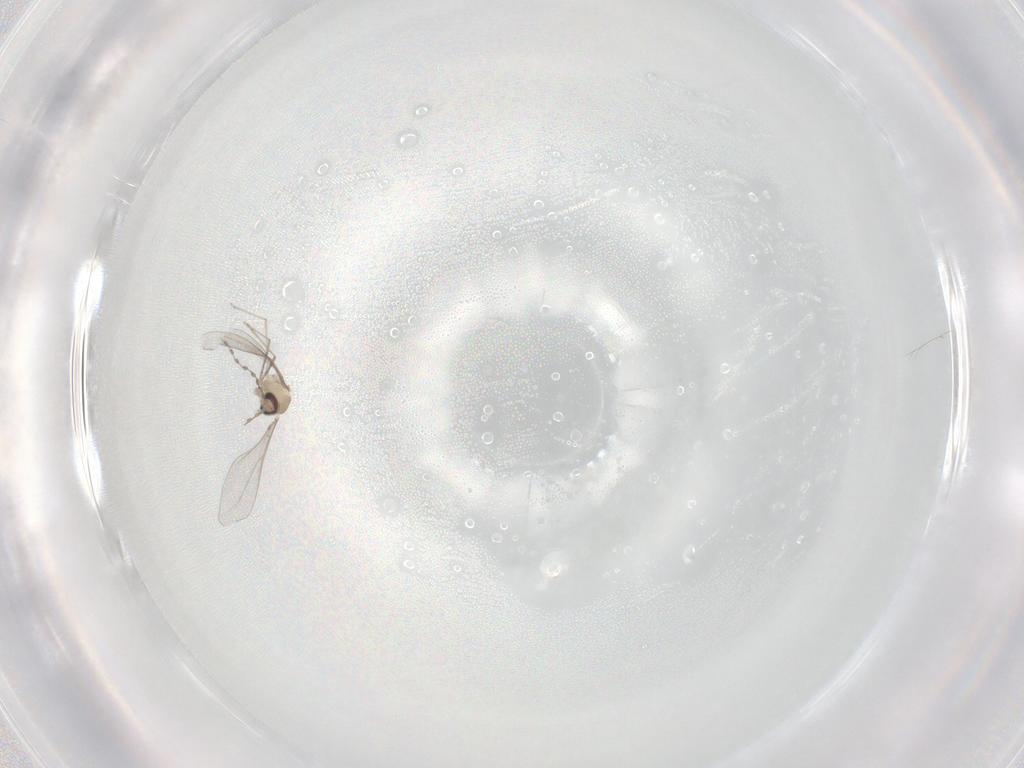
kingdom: Animalia
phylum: Arthropoda
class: Insecta
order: Diptera
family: Cecidomyiidae
